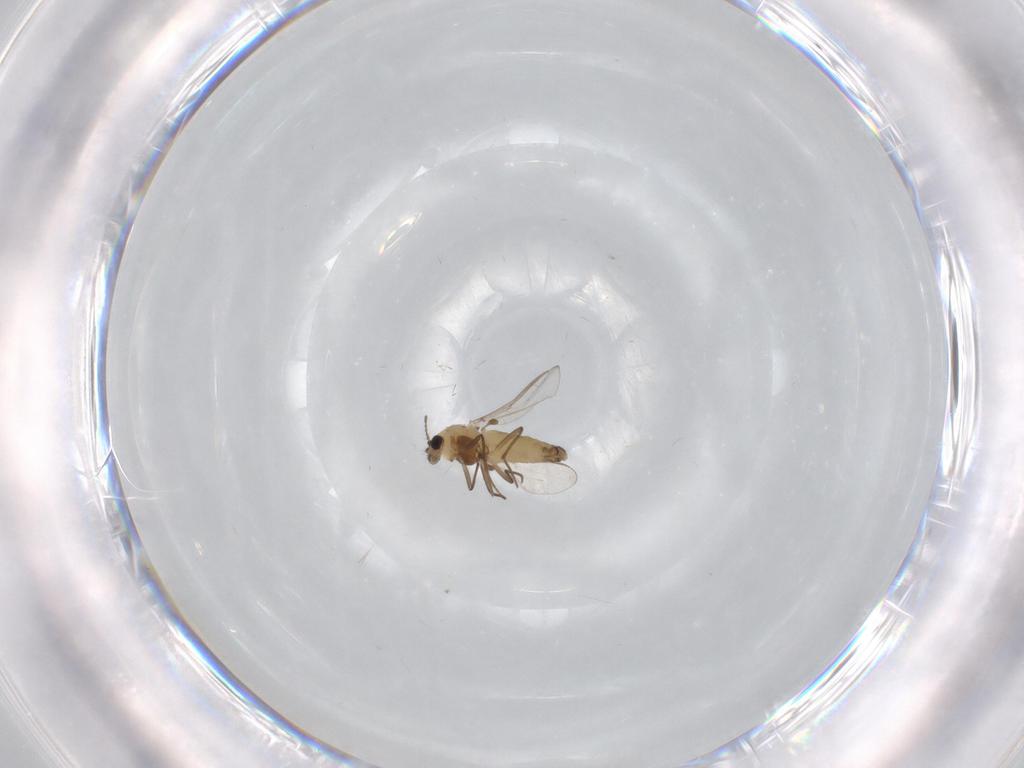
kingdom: Animalia
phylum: Arthropoda
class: Insecta
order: Diptera
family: Chironomidae
